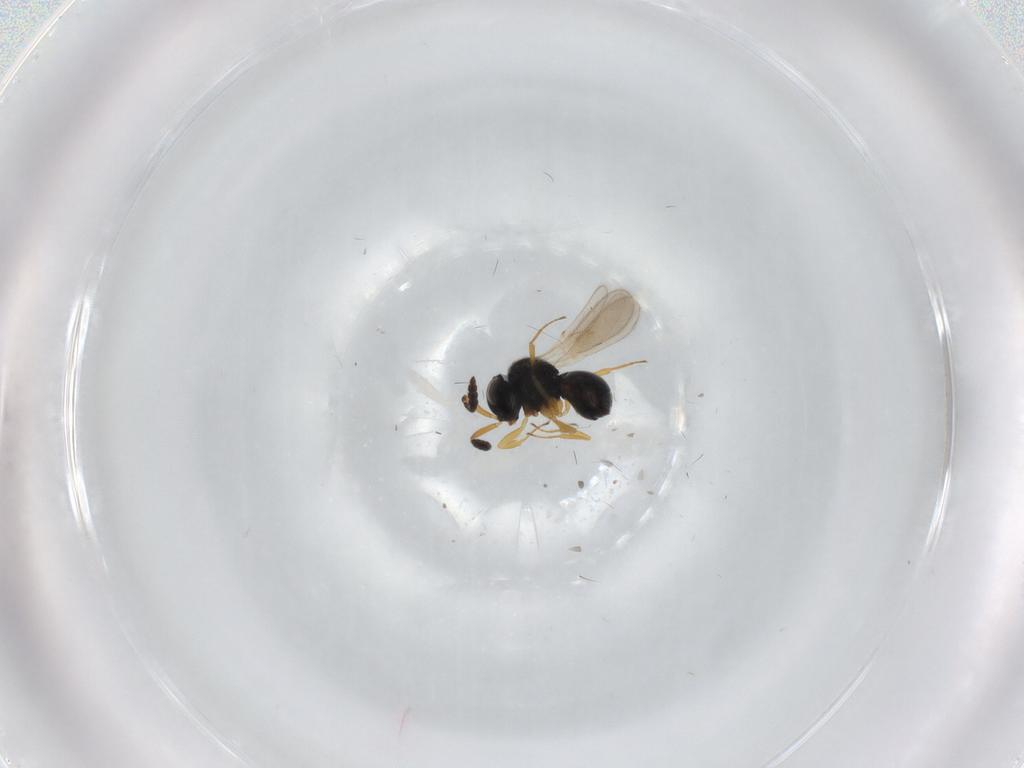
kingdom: Animalia
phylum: Arthropoda
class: Insecta
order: Hymenoptera
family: Scelionidae
